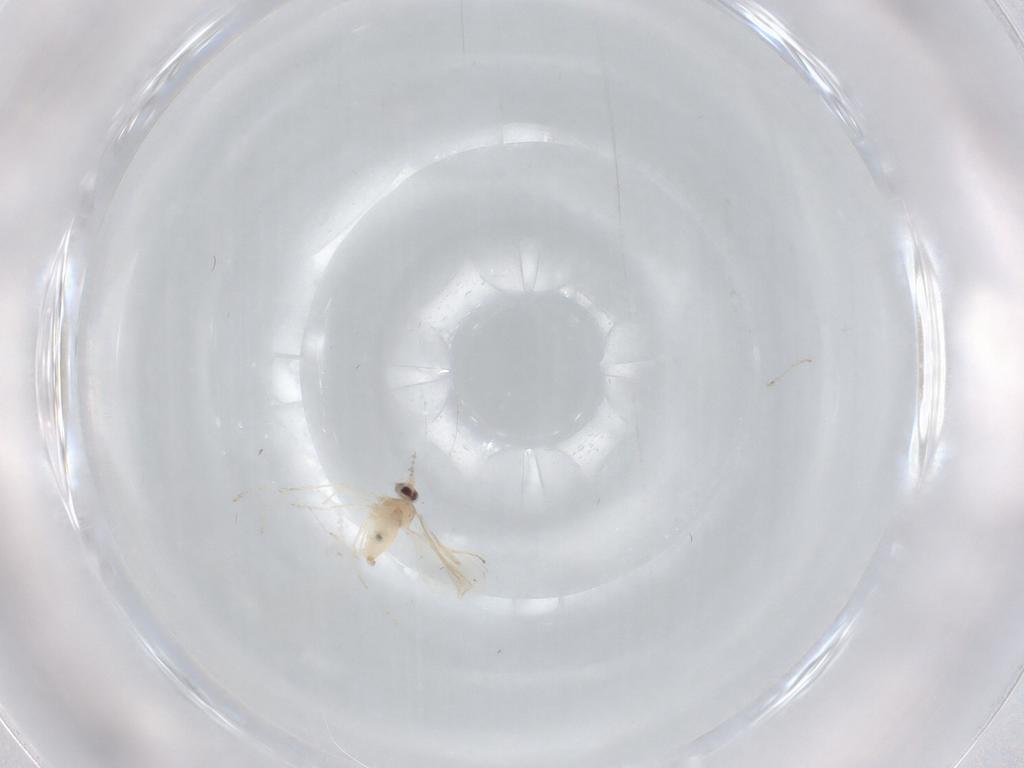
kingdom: Animalia
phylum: Arthropoda
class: Insecta
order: Diptera
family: Cecidomyiidae
